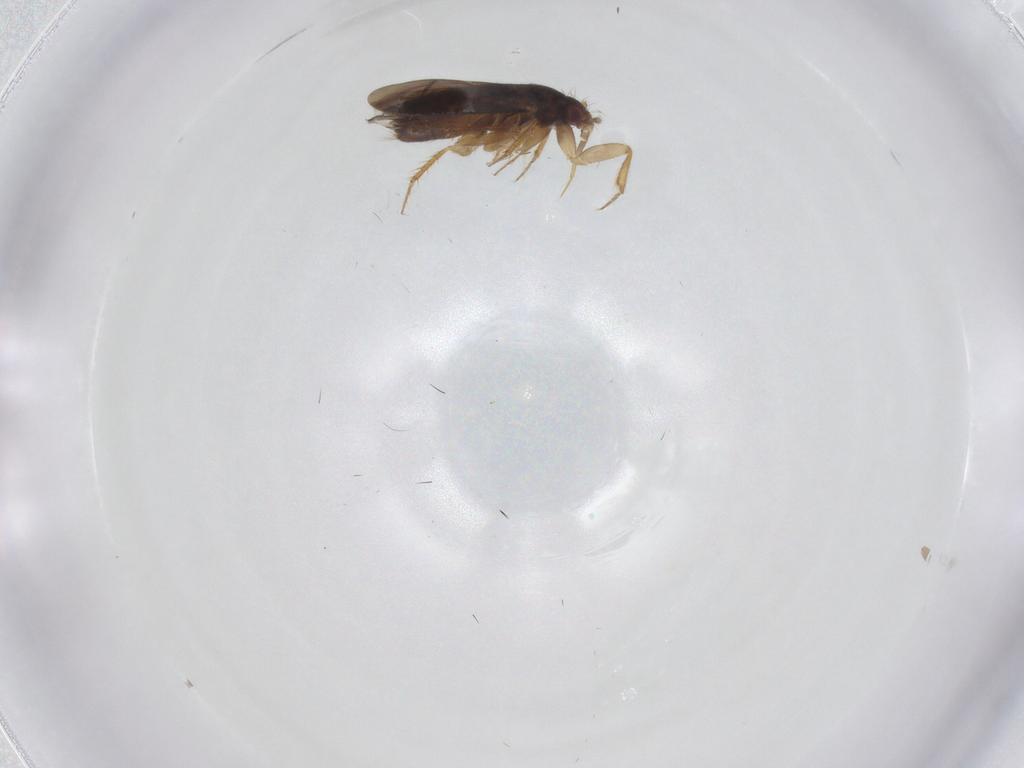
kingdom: Animalia
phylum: Arthropoda
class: Insecta
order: Hemiptera
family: Ceratocombidae
